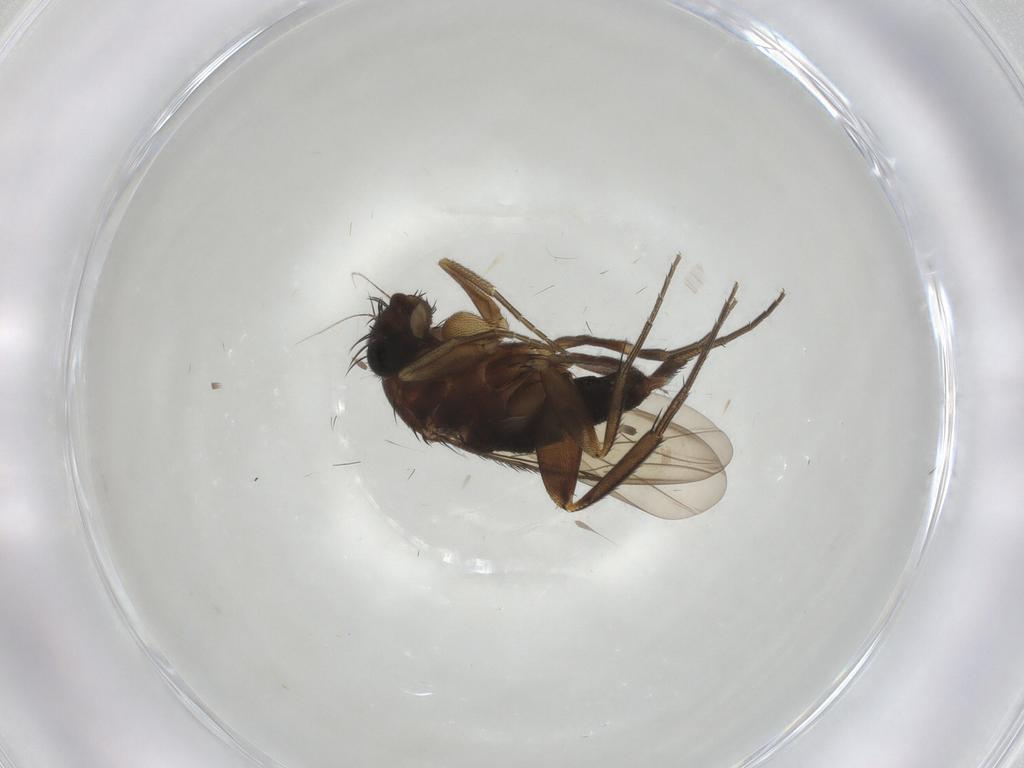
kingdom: Animalia
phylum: Arthropoda
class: Insecta
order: Diptera
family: Phoridae
